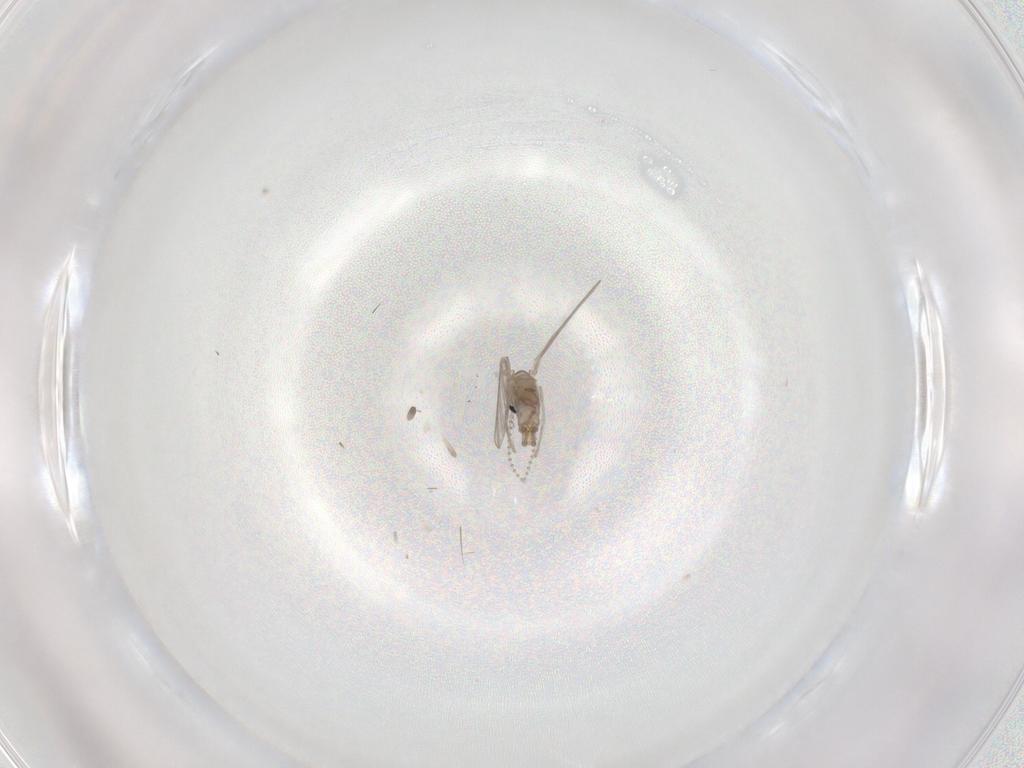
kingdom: Animalia
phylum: Arthropoda
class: Insecta
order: Diptera
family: Psychodidae
